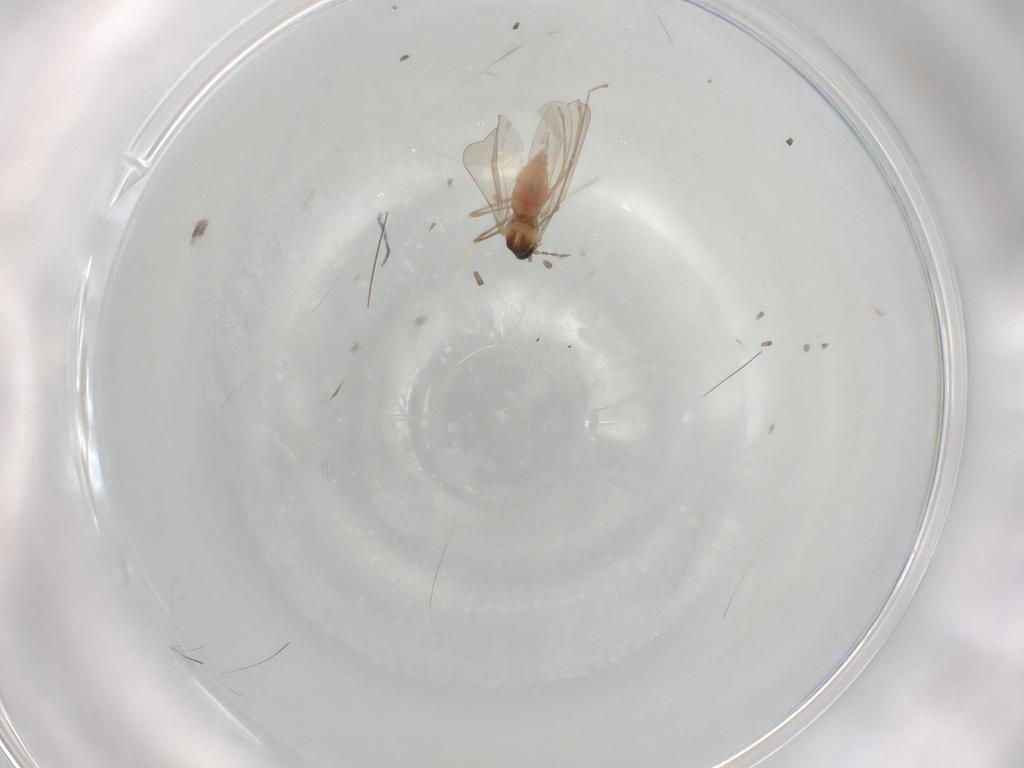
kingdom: Animalia
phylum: Arthropoda
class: Insecta
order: Diptera
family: Cecidomyiidae
